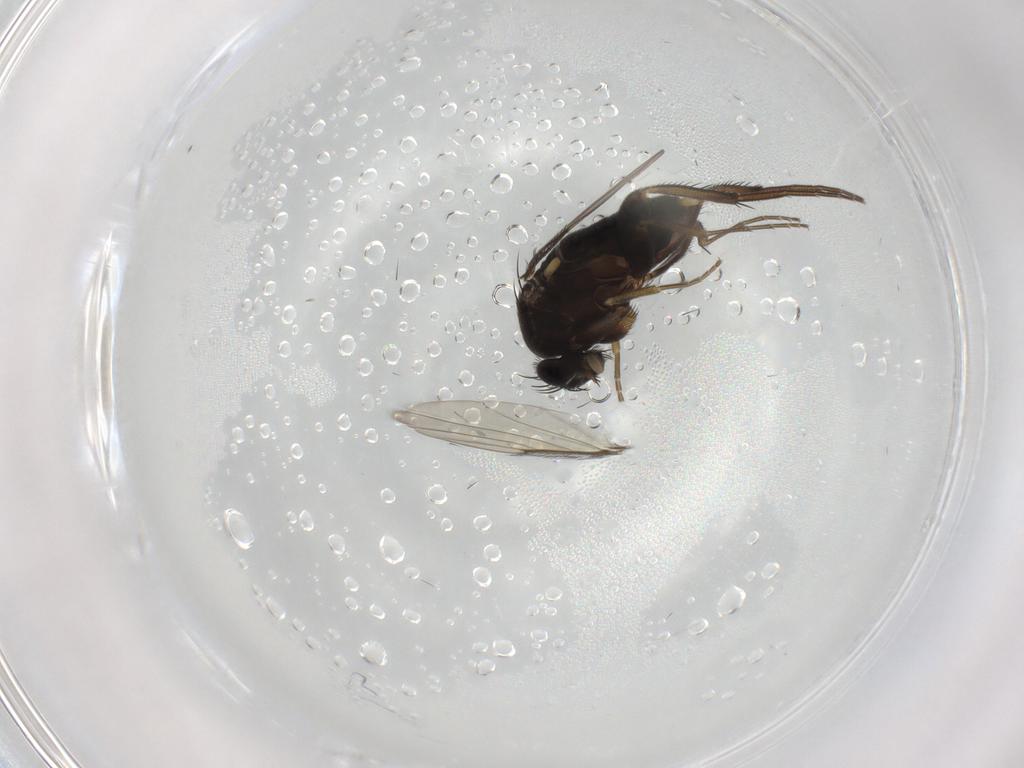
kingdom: Animalia
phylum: Arthropoda
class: Insecta
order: Diptera
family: Phoridae
